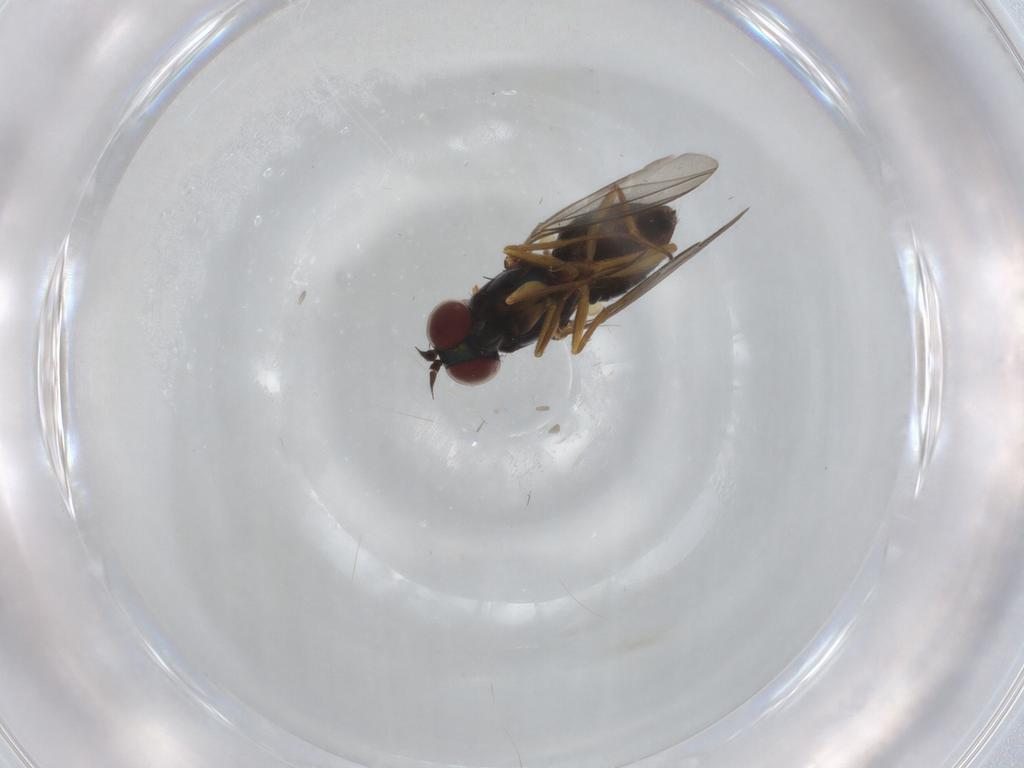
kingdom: Animalia
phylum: Arthropoda
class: Insecta
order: Diptera
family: Dolichopodidae
